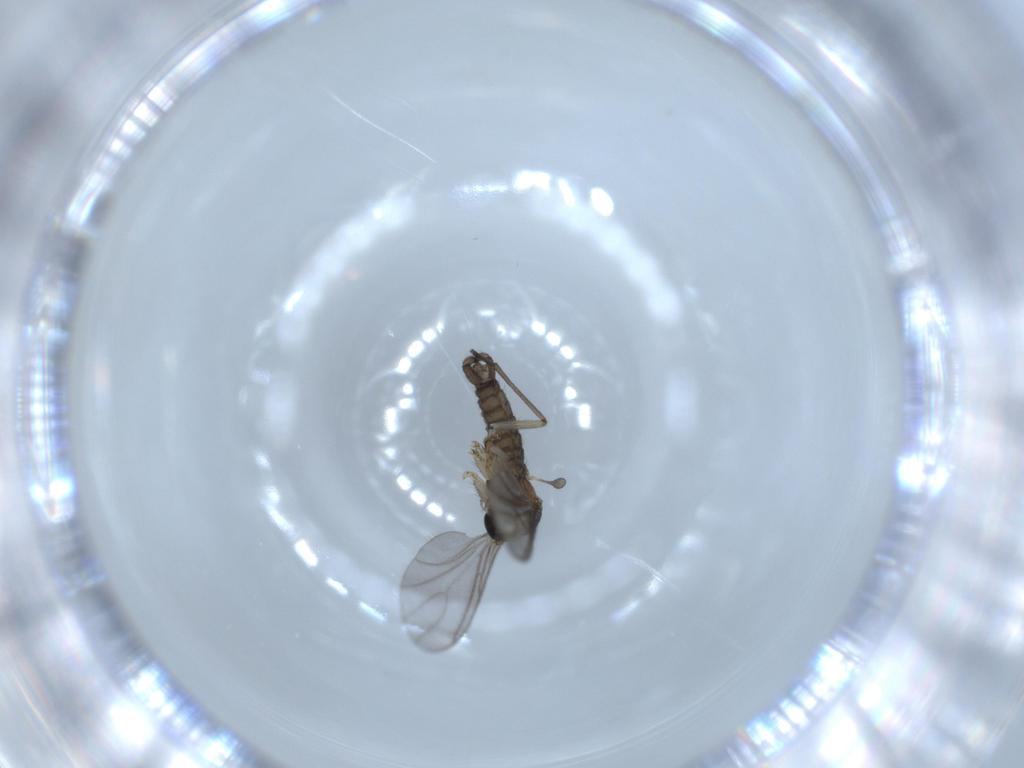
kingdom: Animalia
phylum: Arthropoda
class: Insecta
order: Diptera
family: Sciaridae
